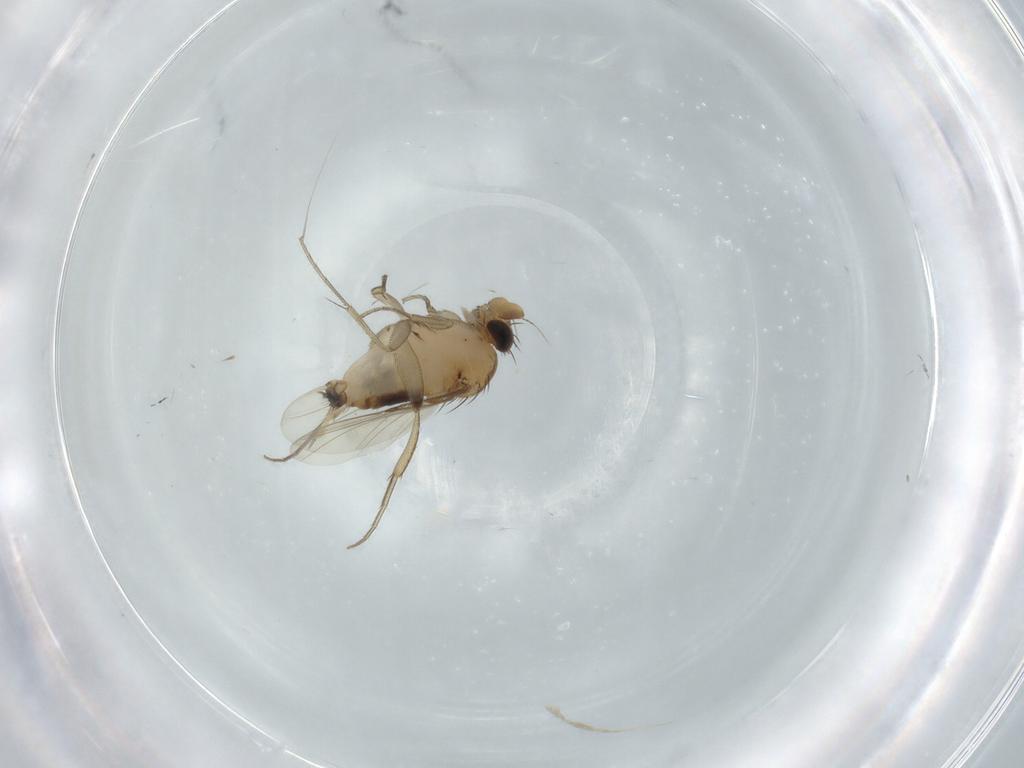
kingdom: Animalia
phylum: Arthropoda
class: Insecta
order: Diptera
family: Phoridae
